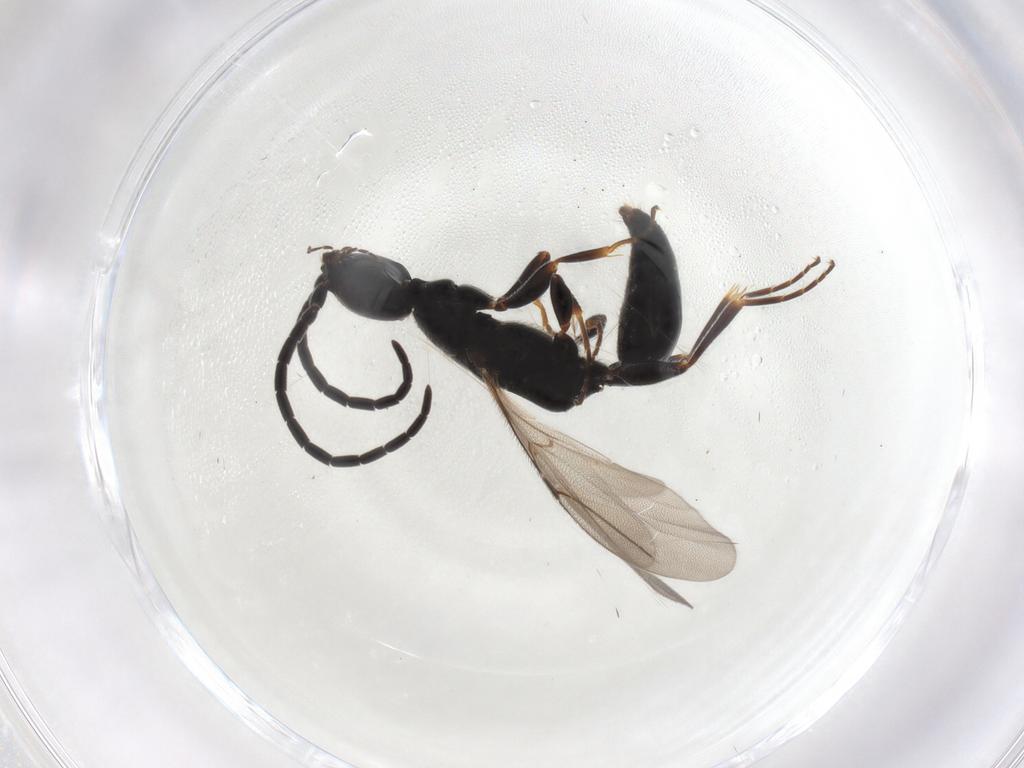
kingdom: Animalia
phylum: Arthropoda
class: Insecta
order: Hymenoptera
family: Bethylidae
